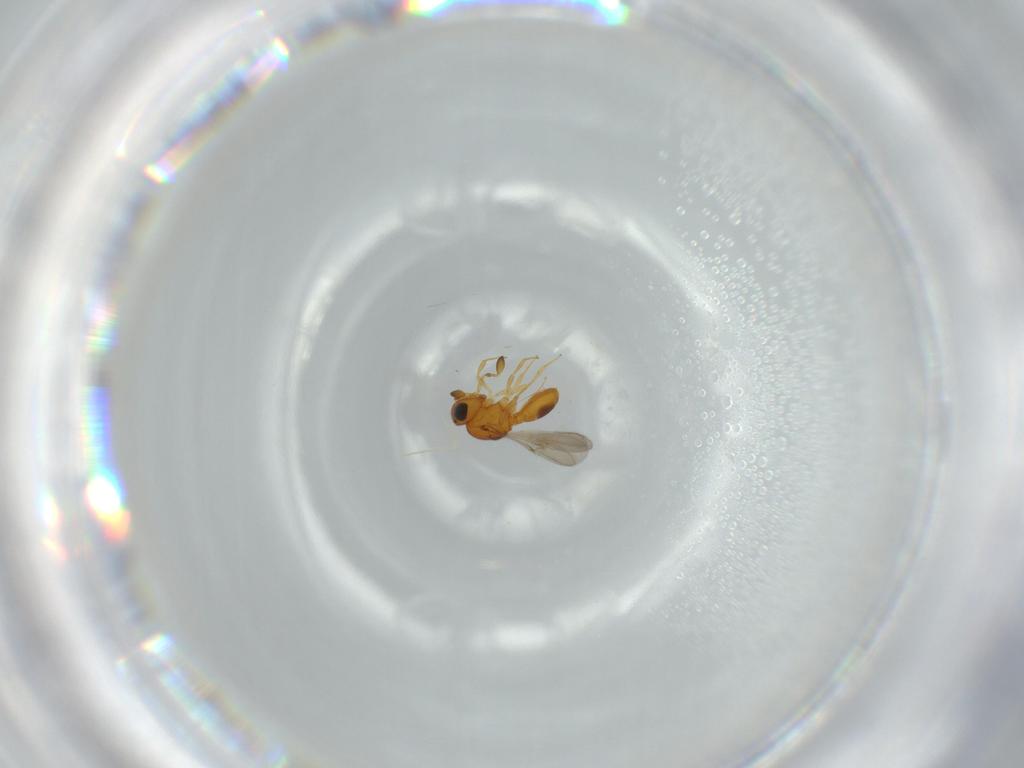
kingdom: Animalia
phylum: Arthropoda
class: Insecta
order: Hymenoptera
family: Scelionidae
